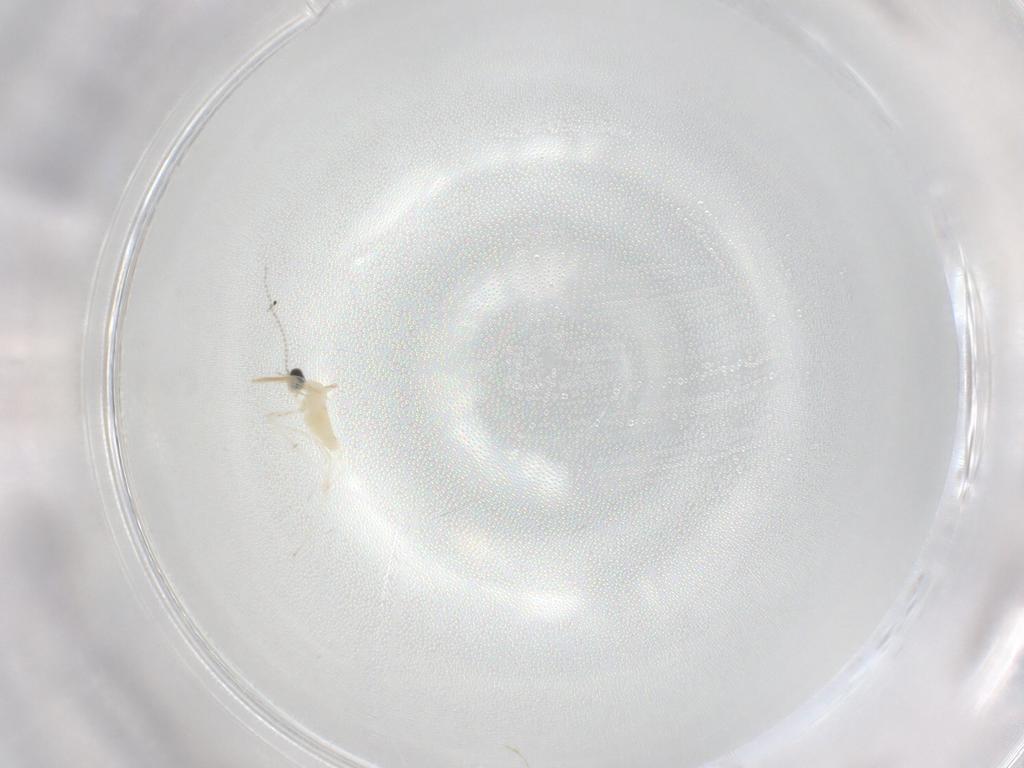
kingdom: Animalia
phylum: Arthropoda
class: Insecta
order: Diptera
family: Cecidomyiidae
